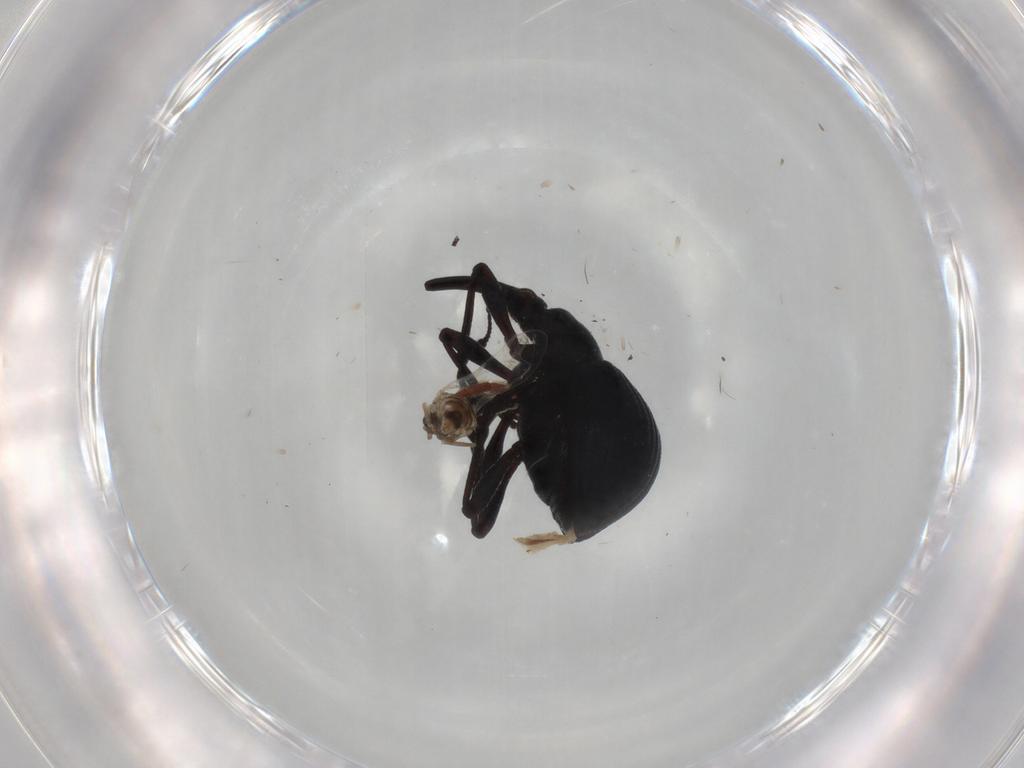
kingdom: Animalia
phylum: Arthropoda
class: Insecta
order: Coleoptera
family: Apionidae
